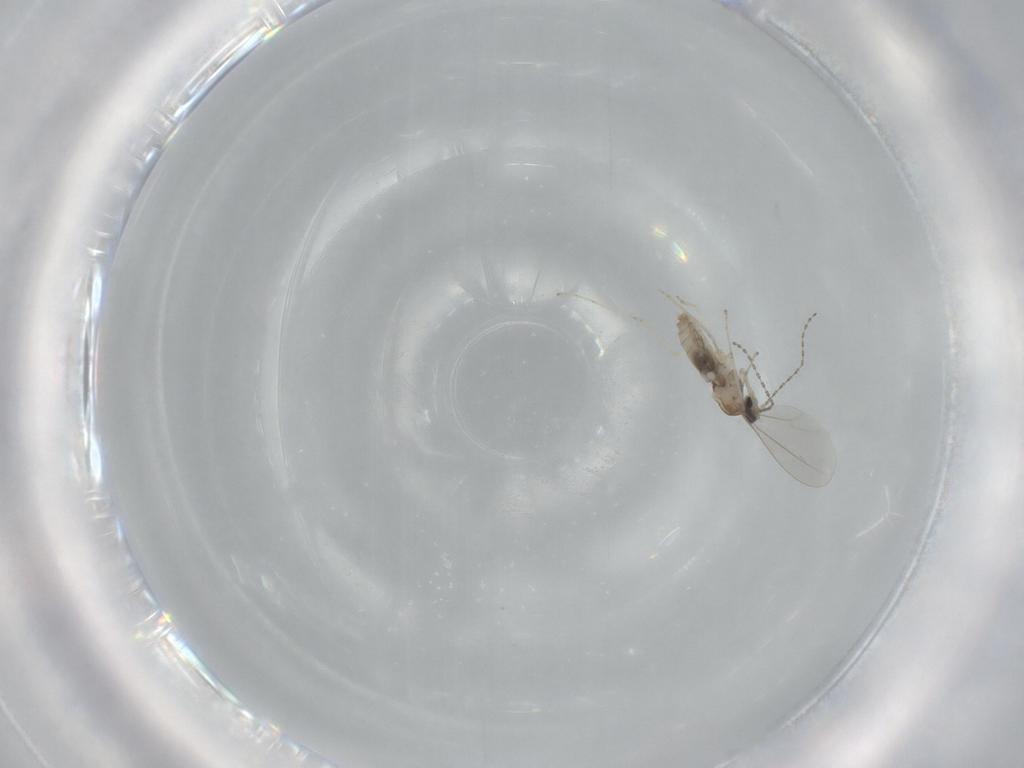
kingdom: Animalia
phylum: Arthropoda
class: Insecta
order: Diptera
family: Cecidomyiidae
